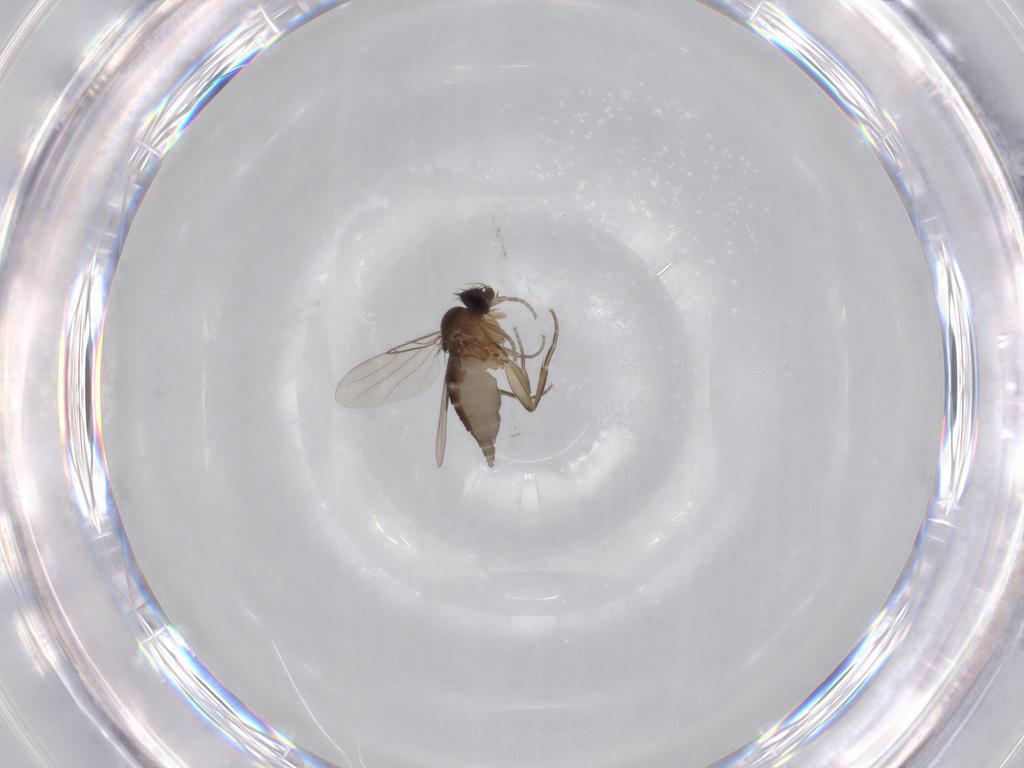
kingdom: Animalia
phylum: Arthropoda
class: Insecta
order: Diptera
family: Phoridae
